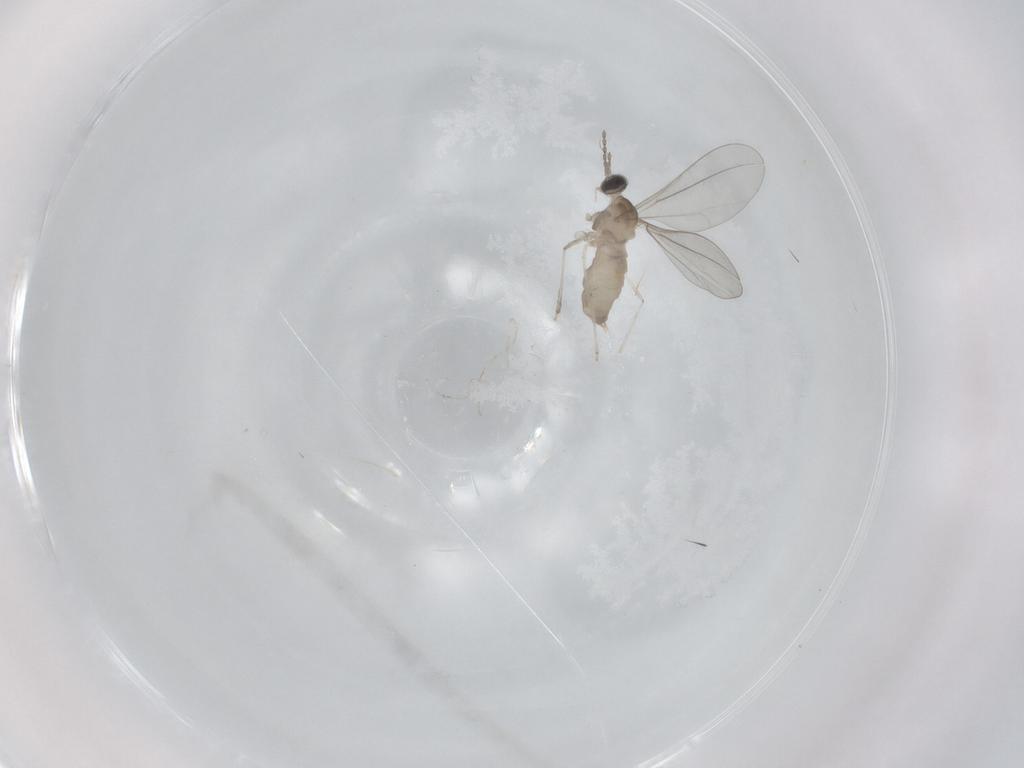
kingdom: Animalia
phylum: Arthropoda
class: Insecta
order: Diptera
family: Cecidomyiidae
